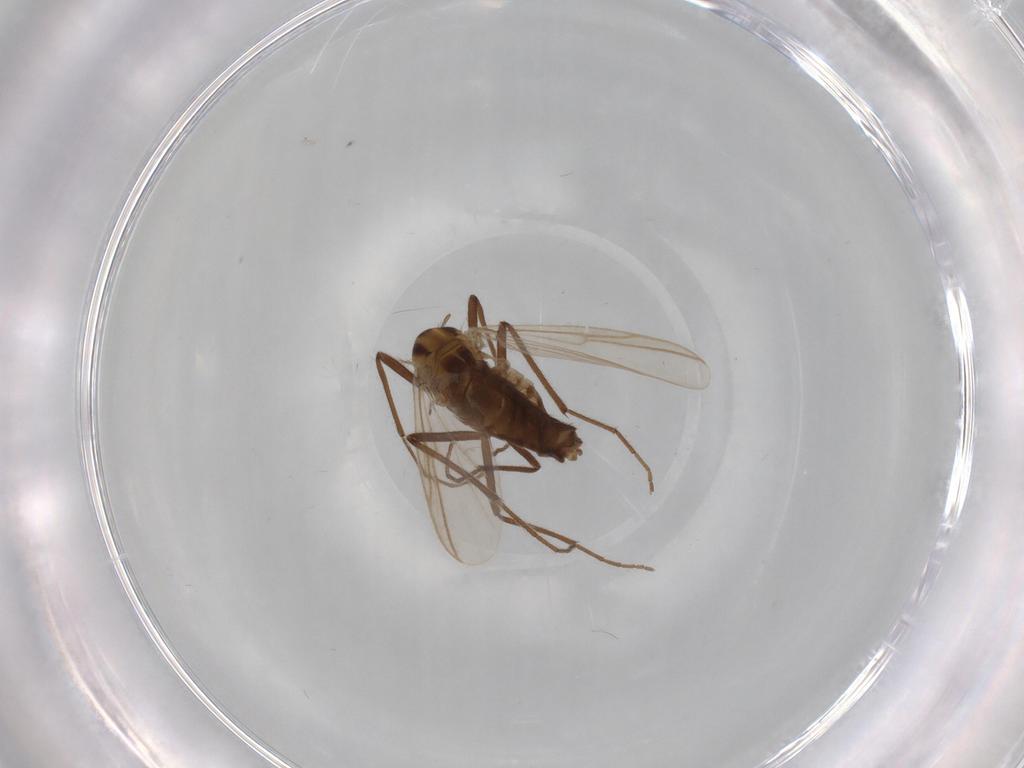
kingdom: Animalia
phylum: Arthropoda
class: Insecta
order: Diptera
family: Chironomidae
